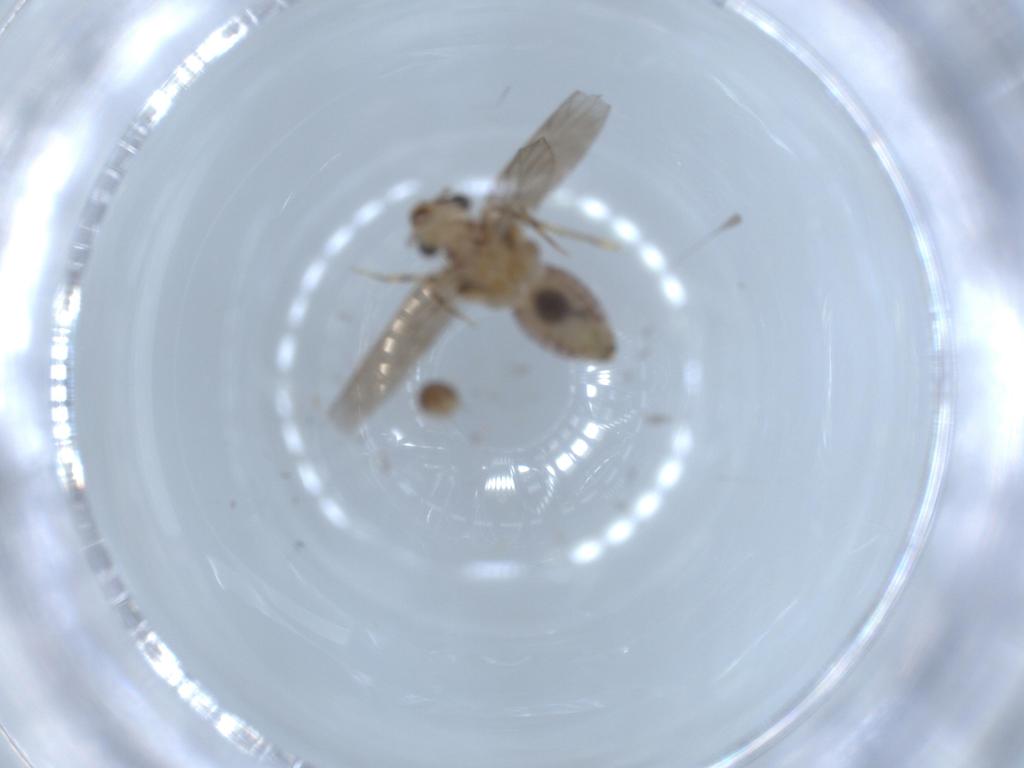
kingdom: Animalia
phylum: Arthropoda
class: Insecta
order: Psocodea
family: Lepidopsocidae
